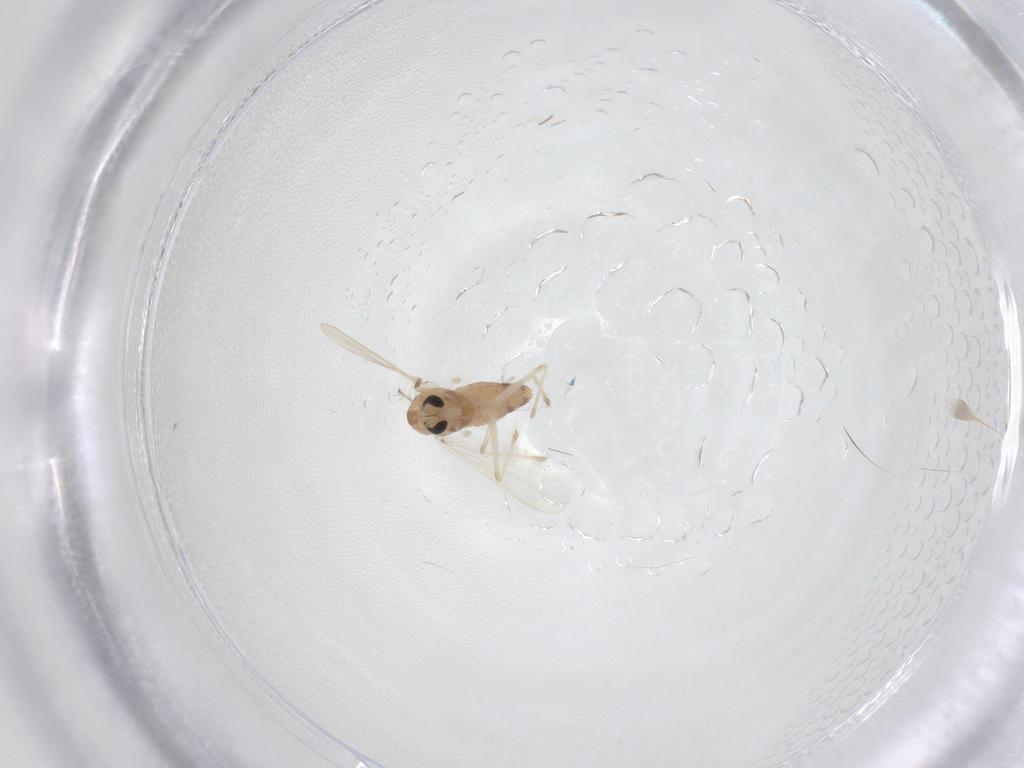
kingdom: Animalia
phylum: Arthropoda
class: Insecta
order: Diptera
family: Chironomidae
